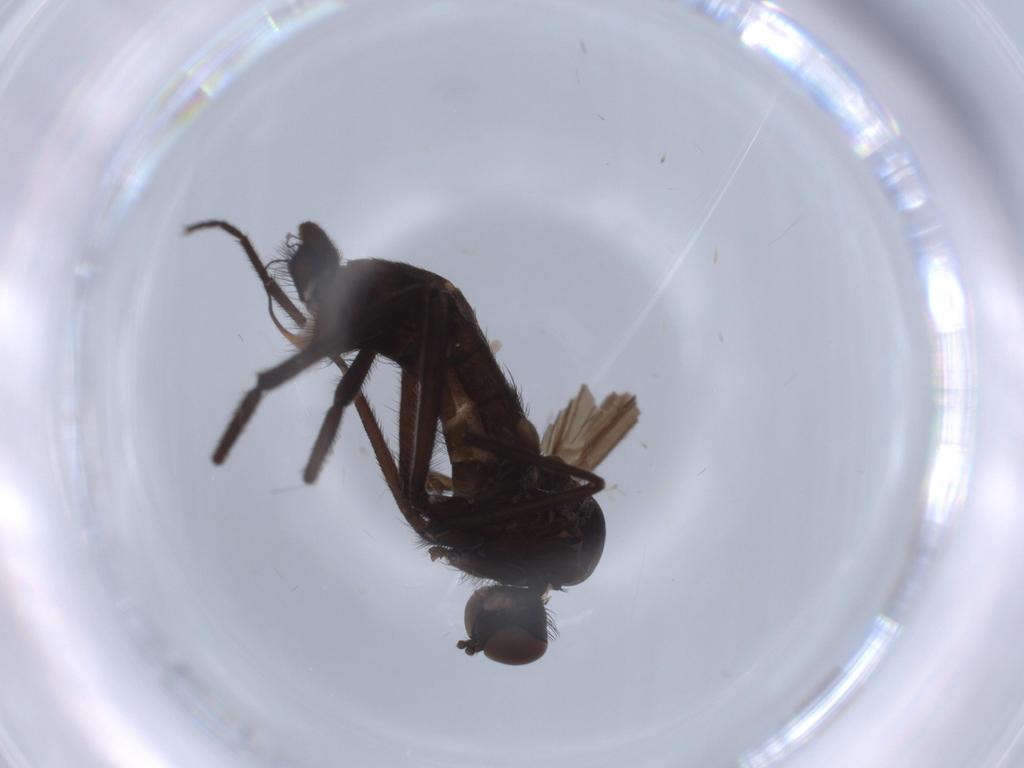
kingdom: Animalia
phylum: Arthropoda
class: Insecta
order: Diptera
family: Empididae
